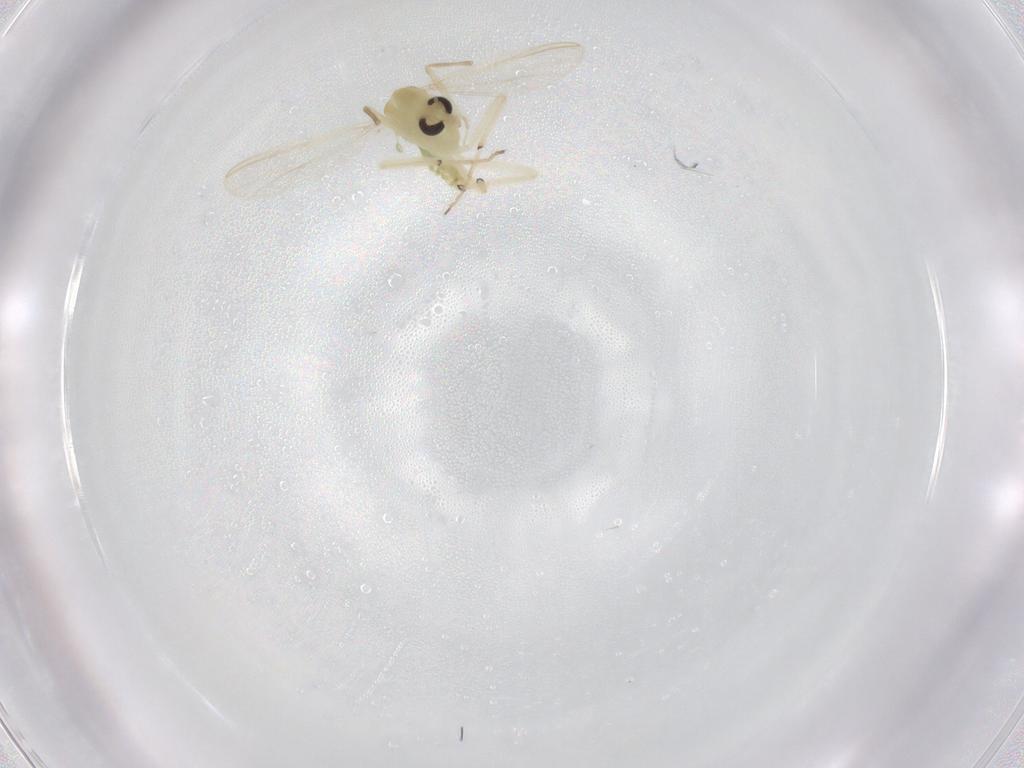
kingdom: Animalia
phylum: Arthropoda
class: Insecta
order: Diptera
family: Chironomidae
